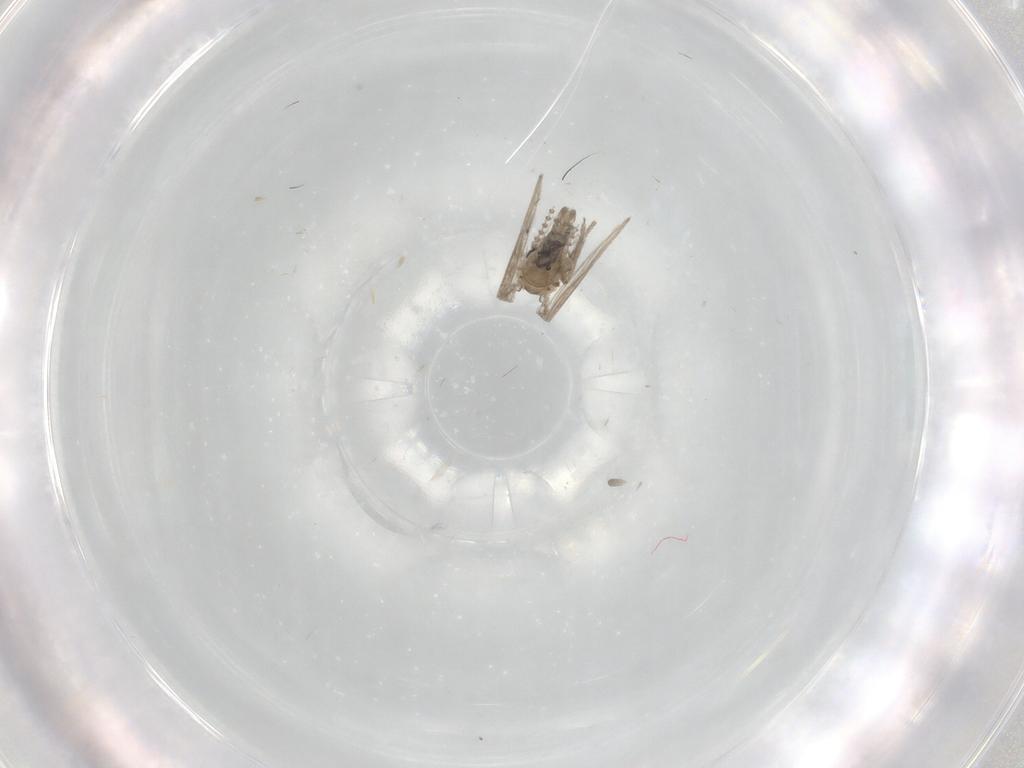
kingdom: Animalia
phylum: Arthropoda
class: Insecta
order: Diptera
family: Psychodidae
